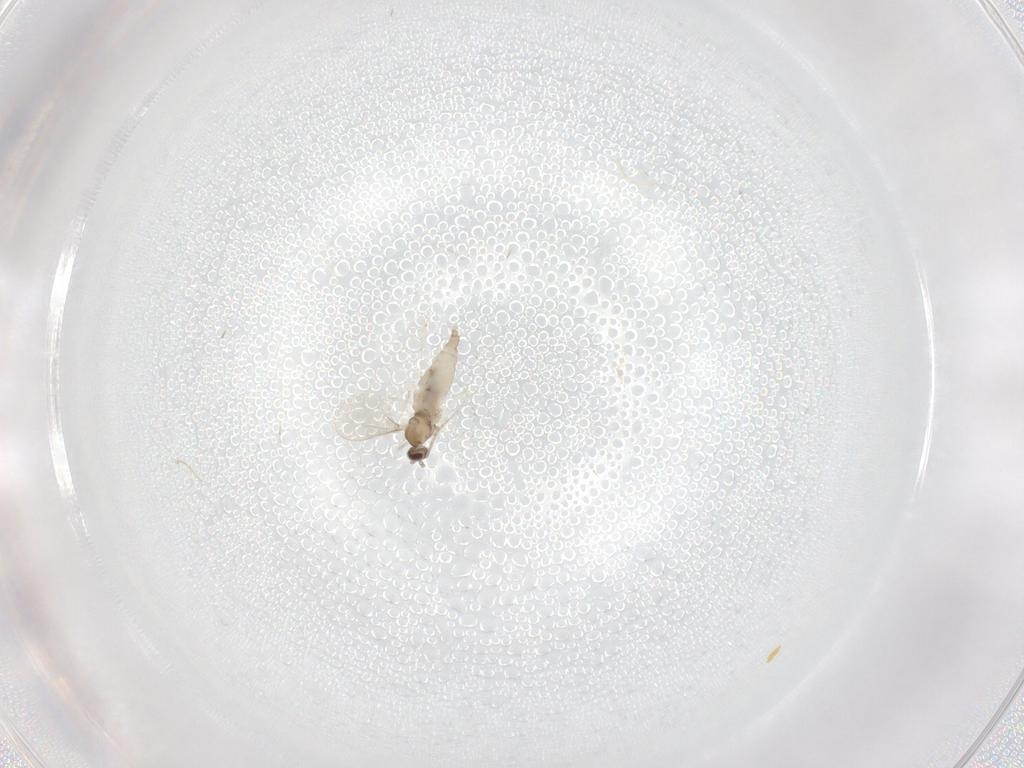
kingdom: Animalia
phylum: Arthropoda
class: Insecta
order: Diptera
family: Cecidomyiidae
